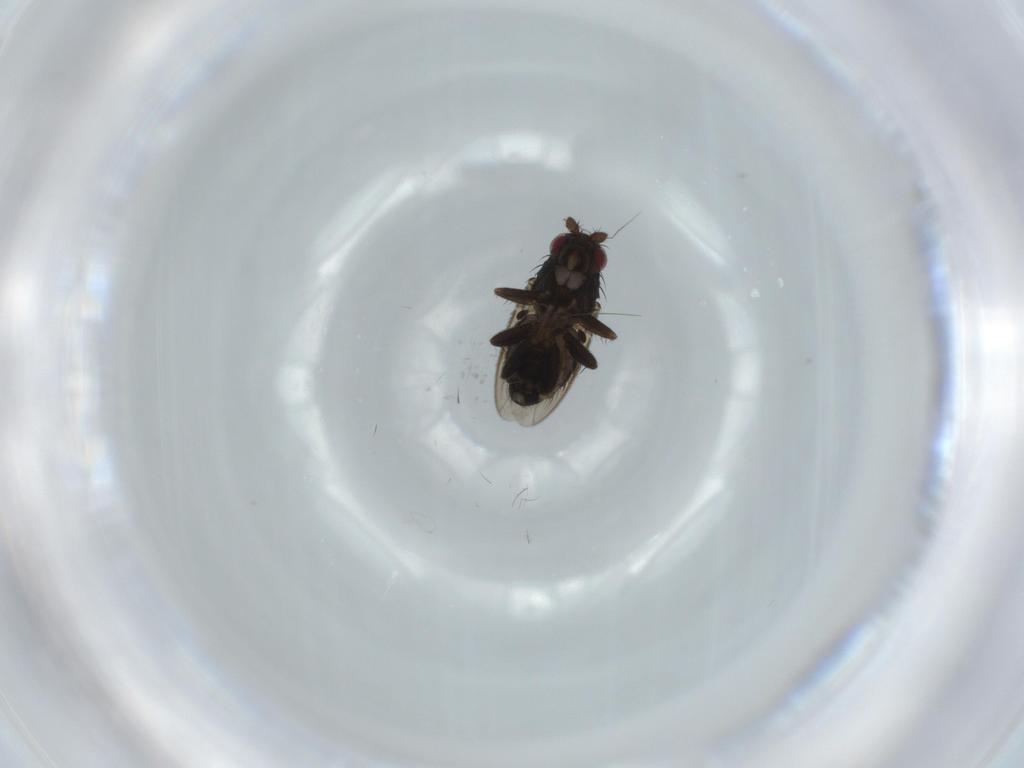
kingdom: Animalia
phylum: Arthropoda
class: Insecta
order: Diptera
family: Sphaeroceridae
